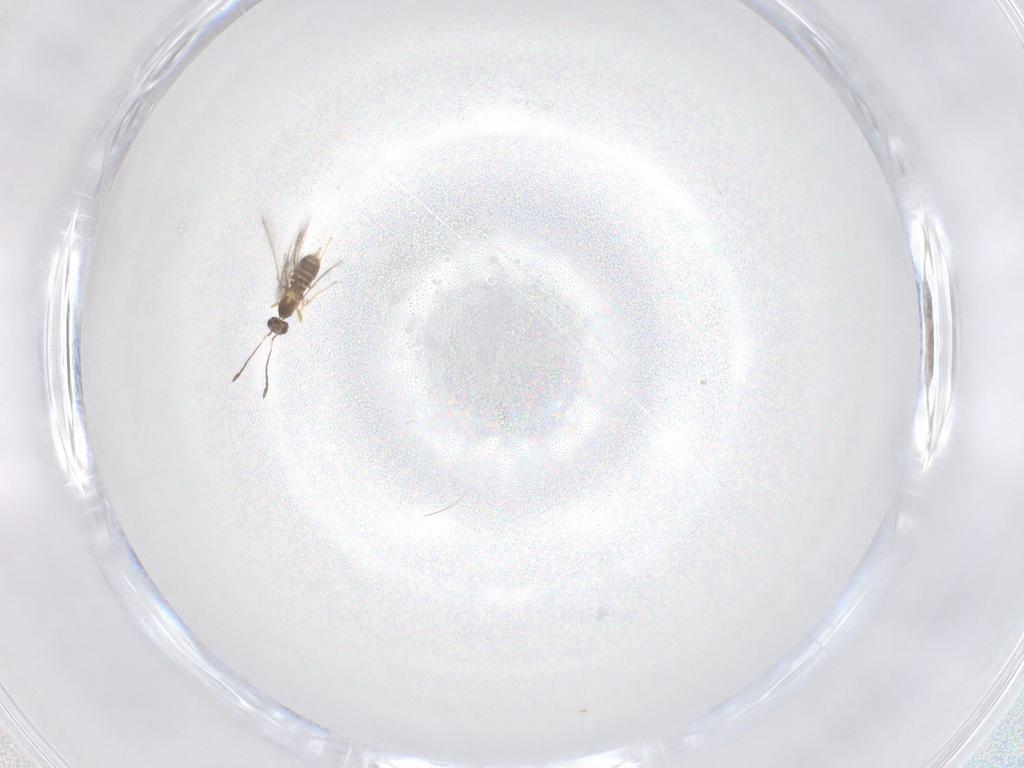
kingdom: Animalia
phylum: Arthropoda
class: Insecta
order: Hymenoptera
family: Mymaridae
